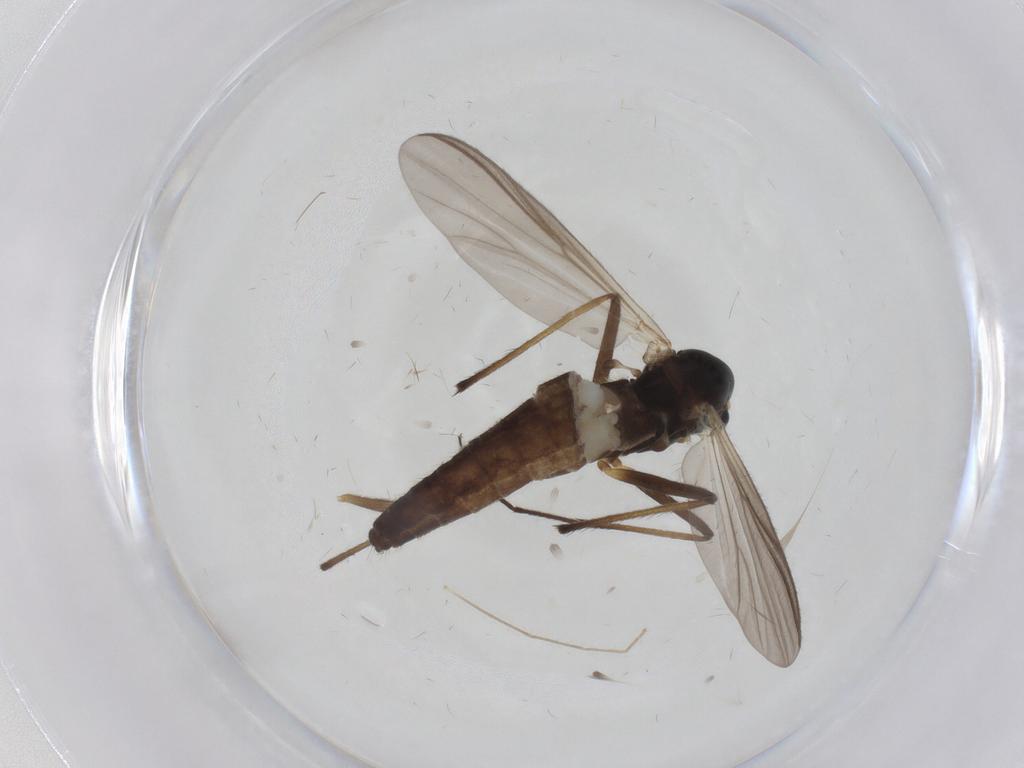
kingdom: Animalia
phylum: Arthropoda
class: Insecta
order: Diptera
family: Chironomidae
